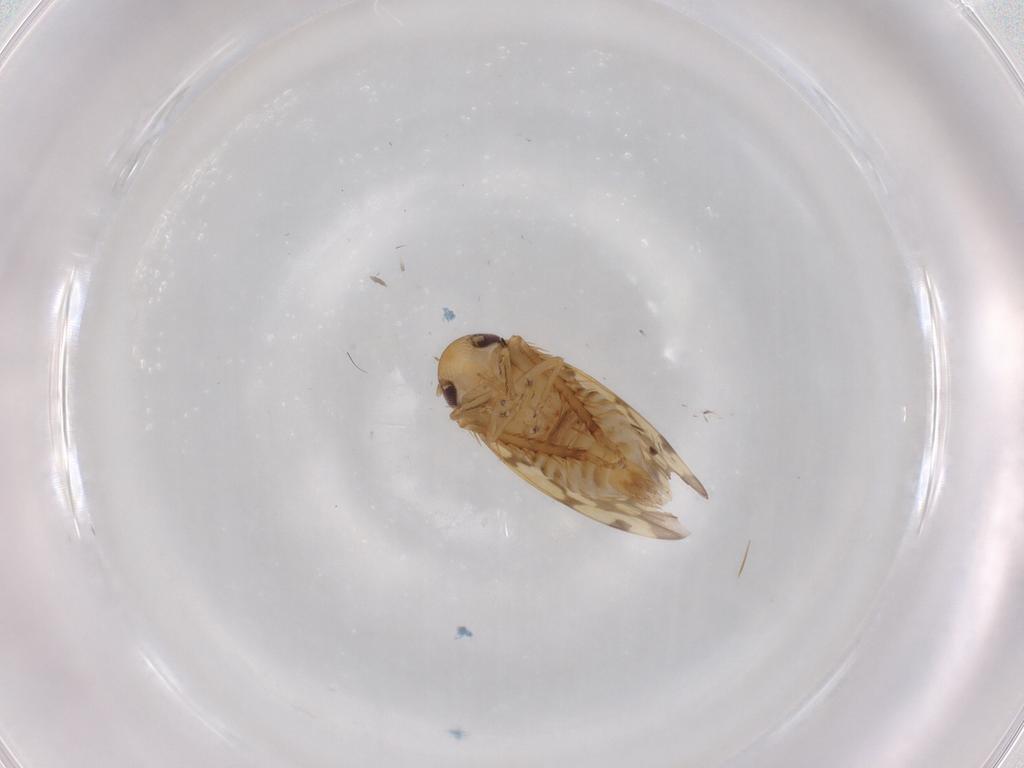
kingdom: Animalia
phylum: Arthropoda
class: Insecta
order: Hemiptera
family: Cicadellidae
